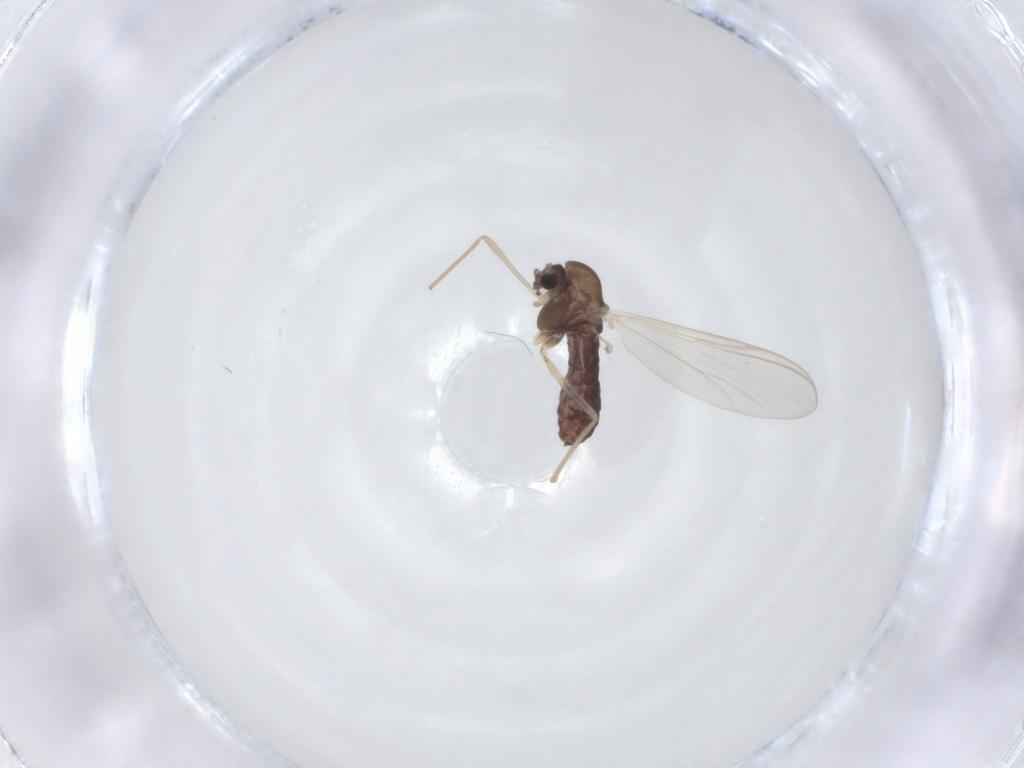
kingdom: Animalia
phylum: Arthropoda
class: Insecta
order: Diptera
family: Chironomidae
